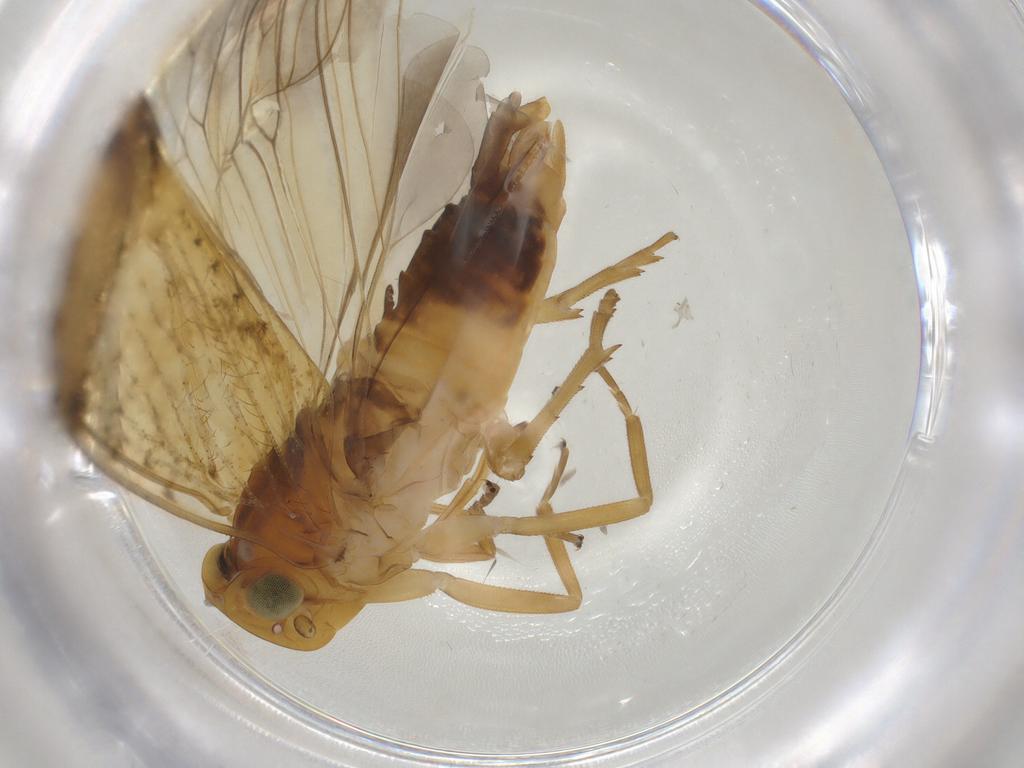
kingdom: Animalia
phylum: Arthropoda
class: Insecta
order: Hemiptera
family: Cixiidae
